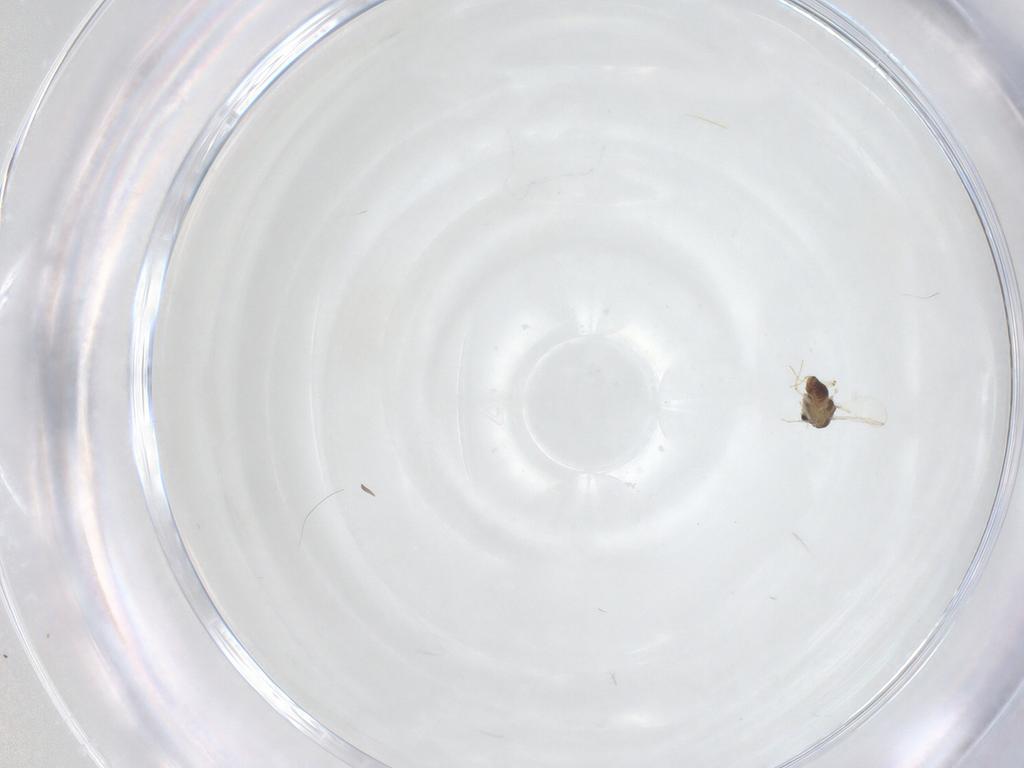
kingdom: Animalia
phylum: Arthropoda
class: Insecta
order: Diptera
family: Chironomidae
